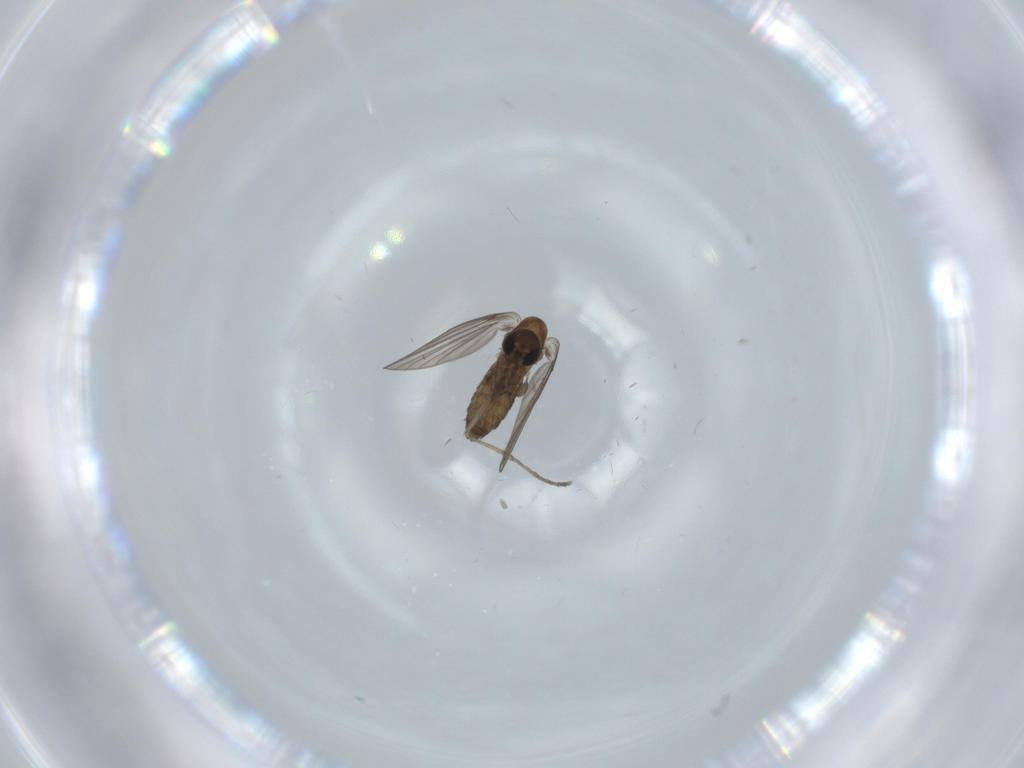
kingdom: Animalia
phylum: Arthropoda
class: Insecta
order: Diptera
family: Psychodidae
